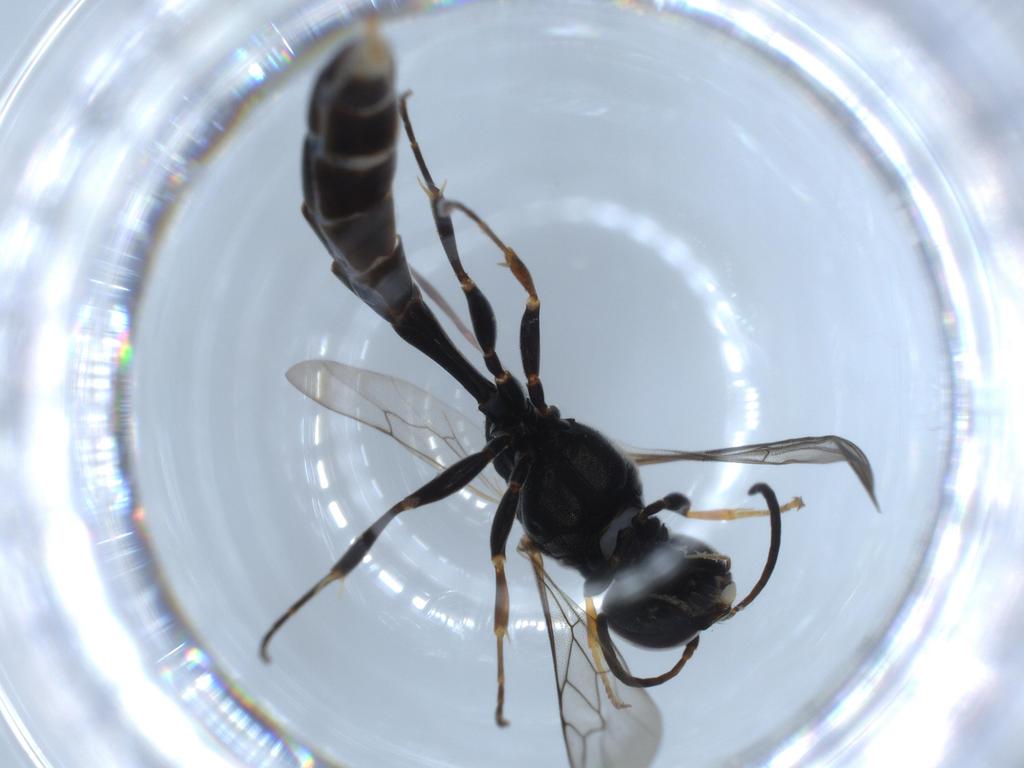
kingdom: Animalia
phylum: Arthropoda
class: Insecta
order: Hymenoptera
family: Crabronidae
